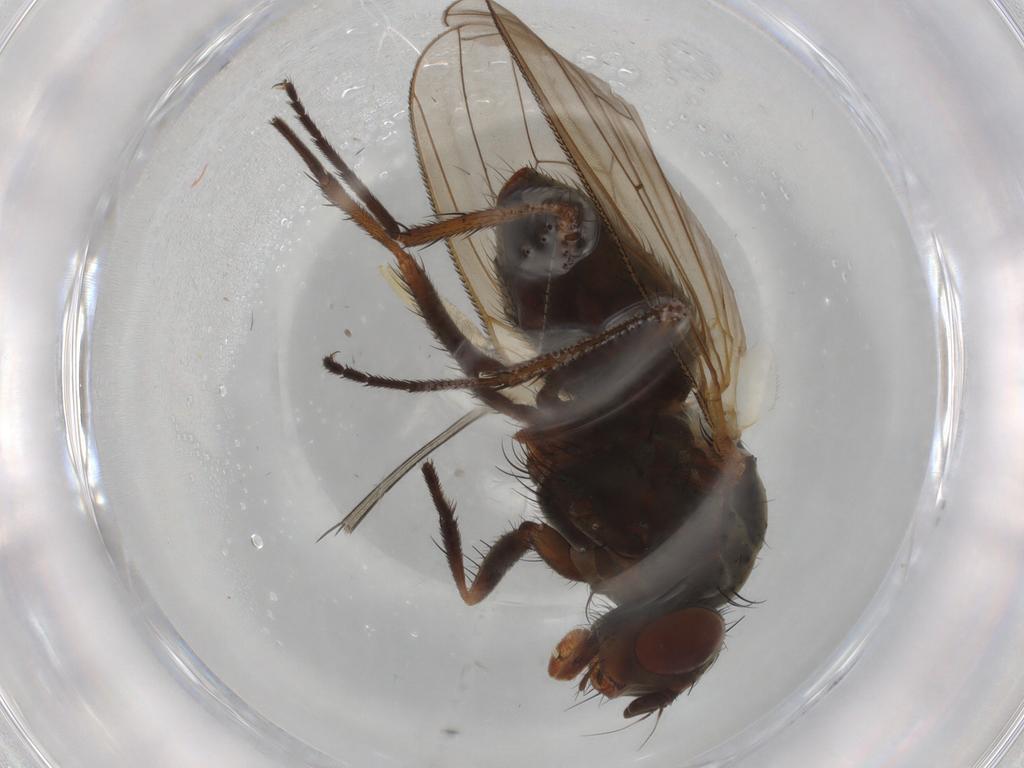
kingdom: Animalia
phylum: Arthropoda
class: Insecta
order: Diptera
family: Anthomyiidae
